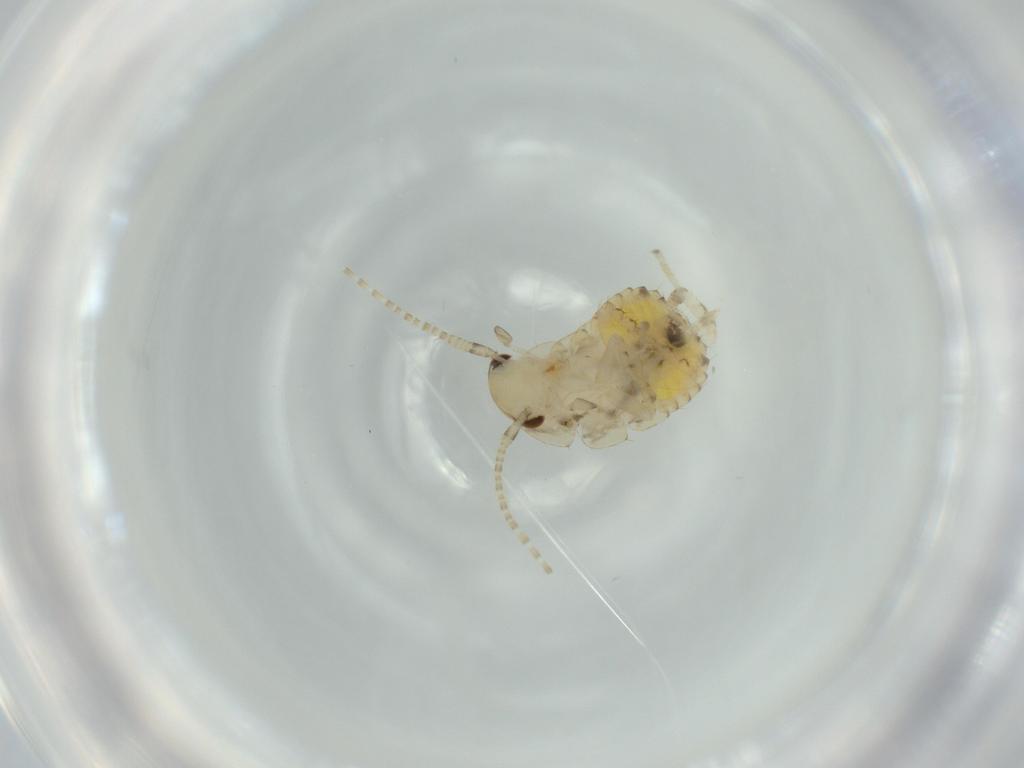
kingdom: Animalia
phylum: Arthropoda
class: Insecta
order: Blattodea
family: Ectobiidae
